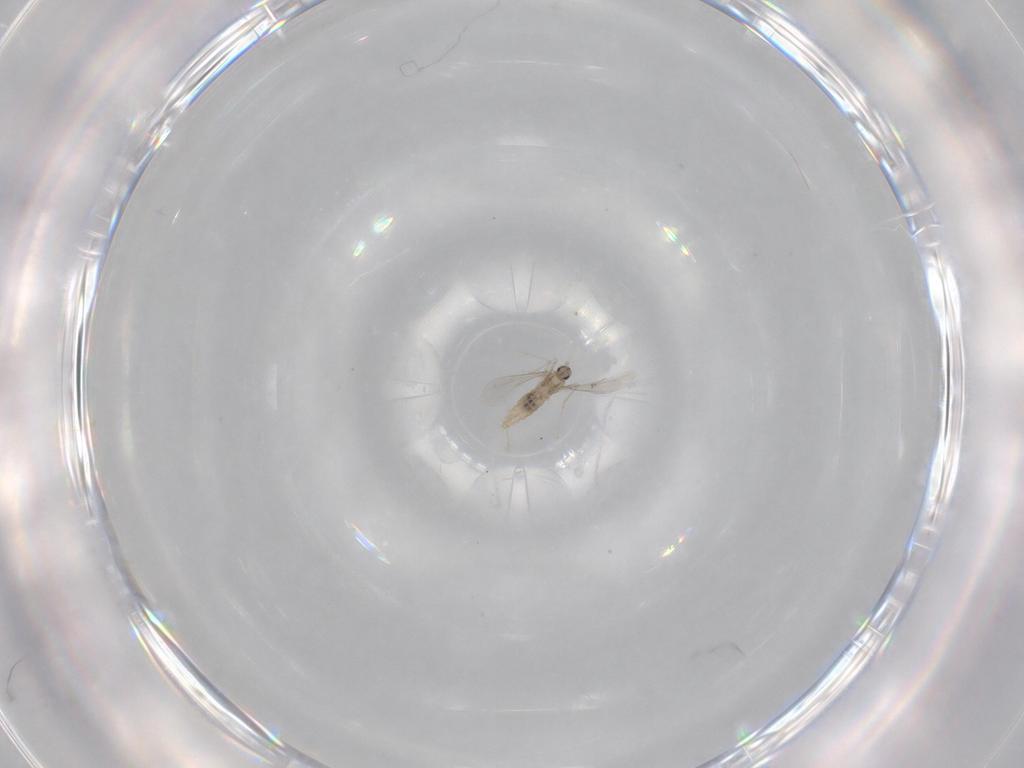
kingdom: Animalia
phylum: Arthropoda
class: Insecta
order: Diptera
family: Cecidomyiidae
